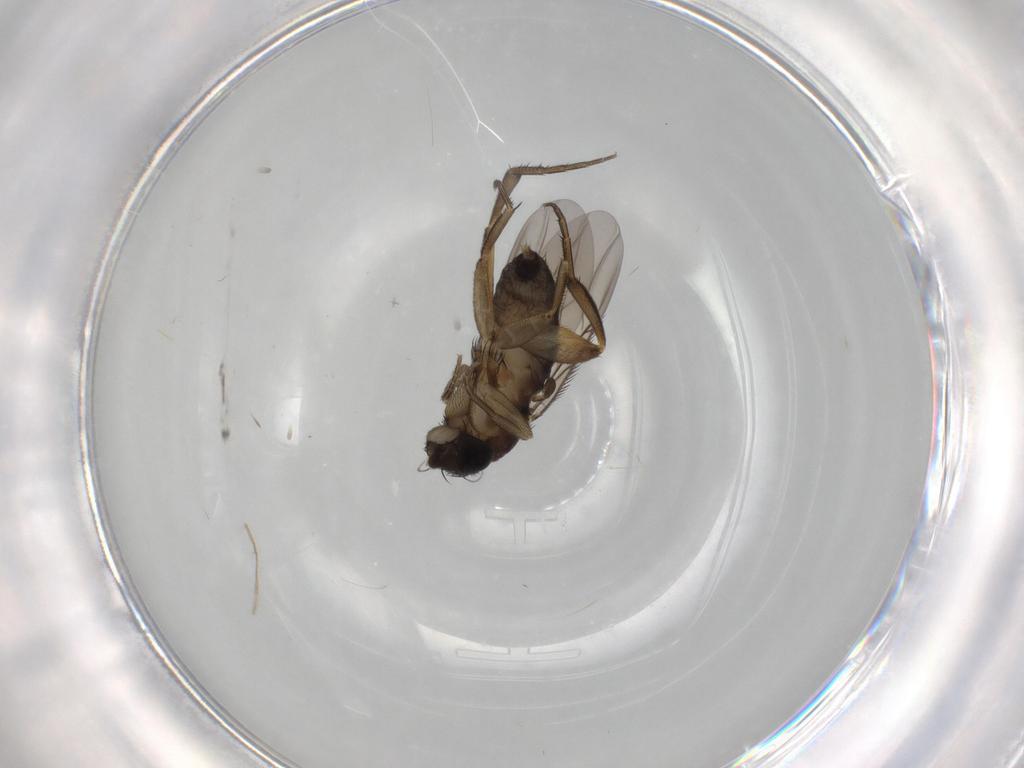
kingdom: Animalia
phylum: Arthropoda
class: Insecta
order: Diptera
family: Phoridae
